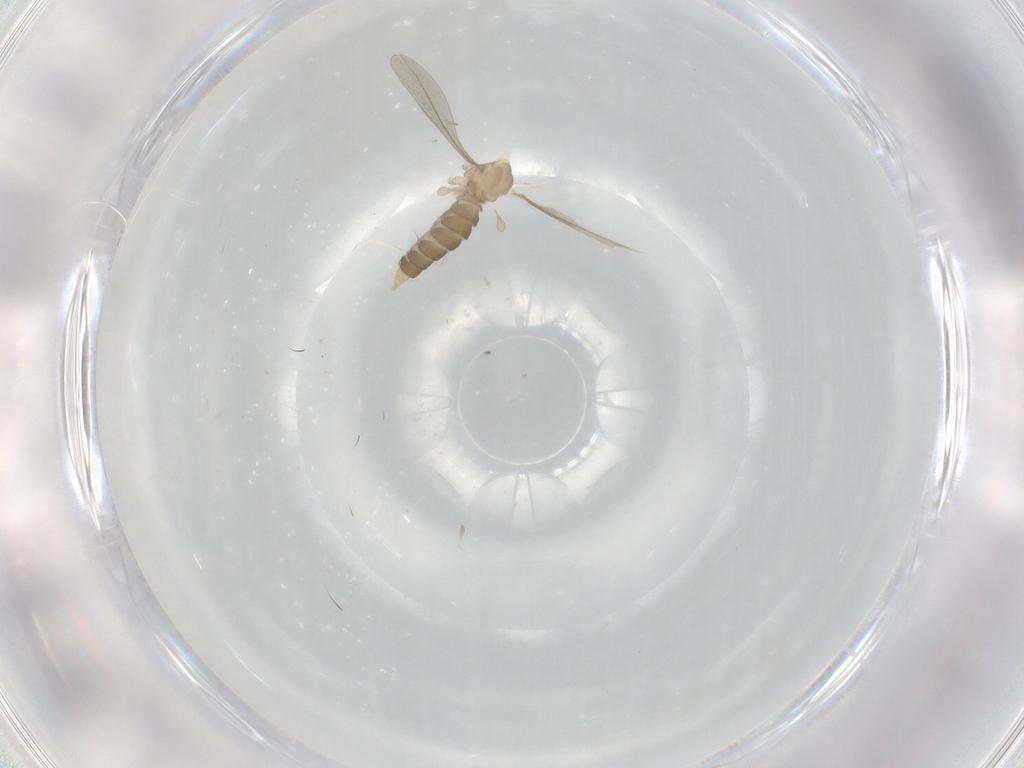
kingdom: Animalia
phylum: Arthropoda
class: Insecta
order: Diptera
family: Cecidomyiidae
